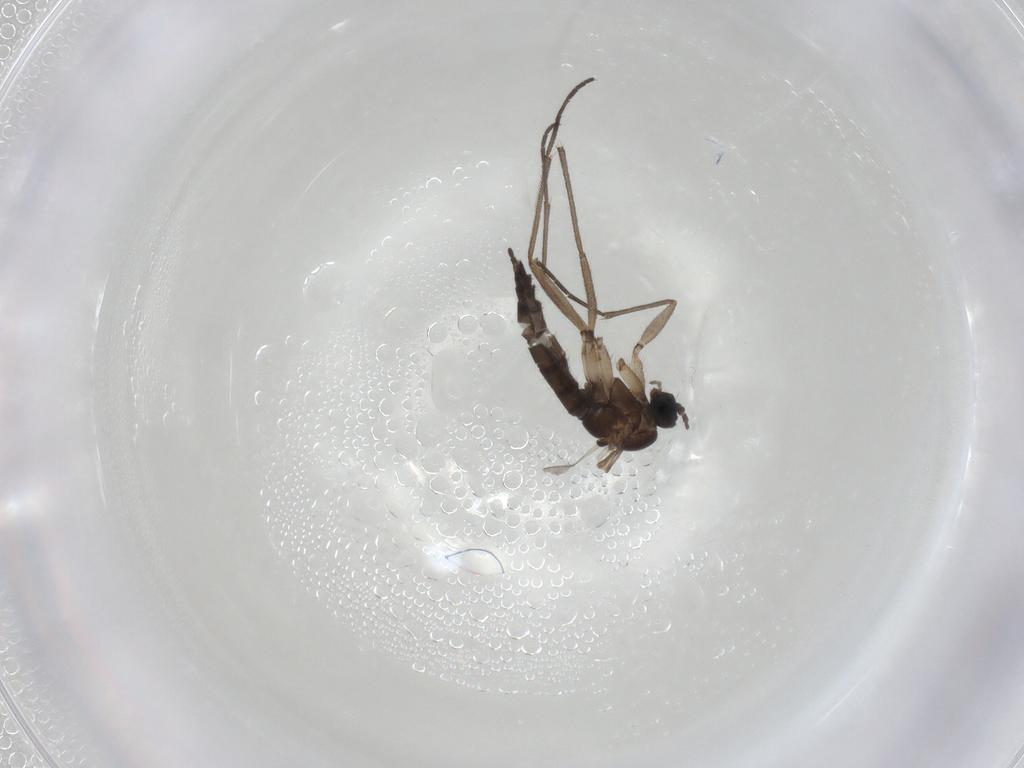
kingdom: Animalia
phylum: Arthropoda
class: Insecta
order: Diptera
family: Sciaridae
